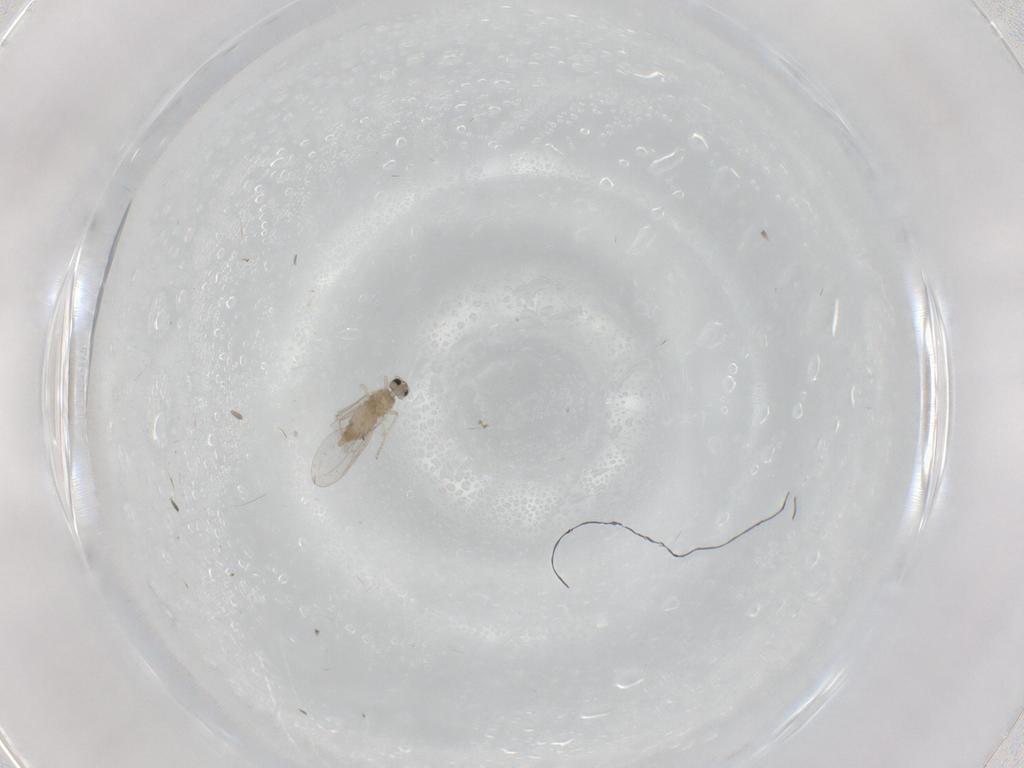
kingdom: Animalia
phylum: Arthropoda
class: Insecta
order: Diptera
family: Cecidomyiidae
